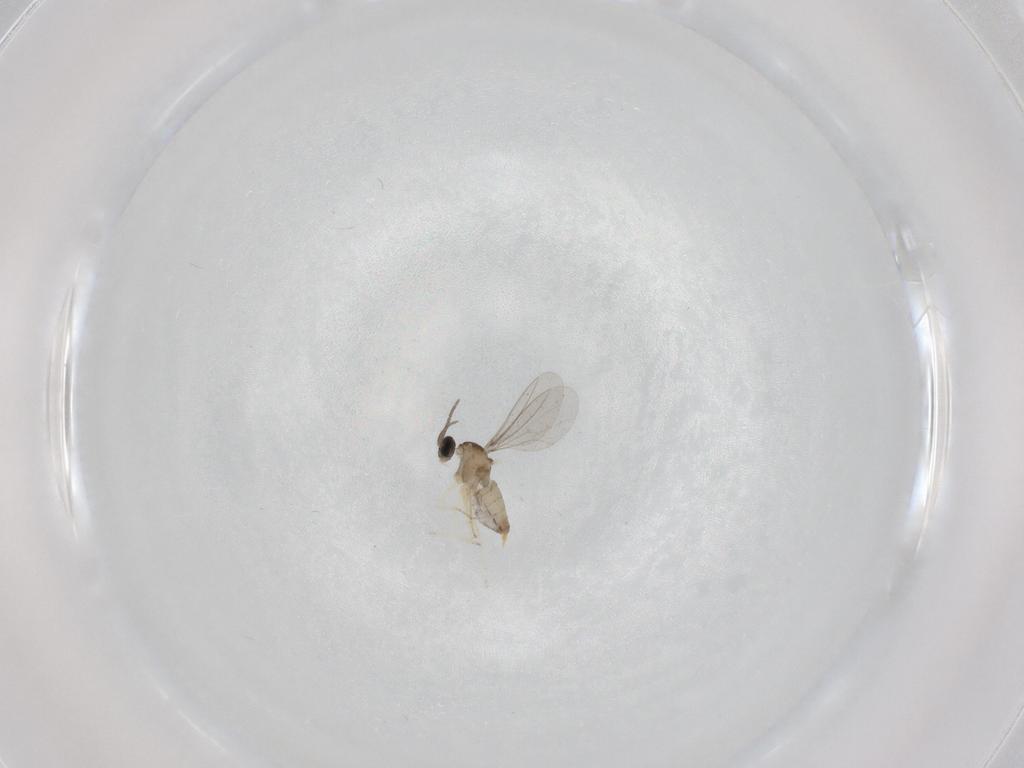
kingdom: Animalia
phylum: Arthropoda
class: Insecta
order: Diptera
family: Cecidomyiidae
